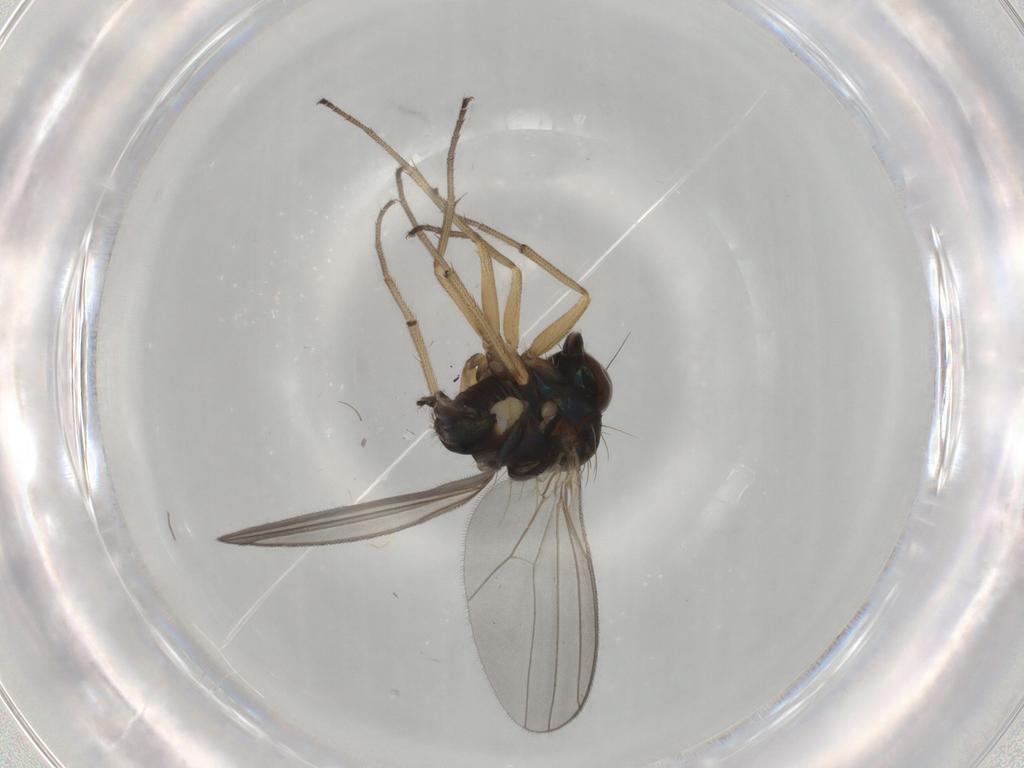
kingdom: Animalia
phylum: Arthropoda
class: Insecta
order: Diptera
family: Dolichopodidae
